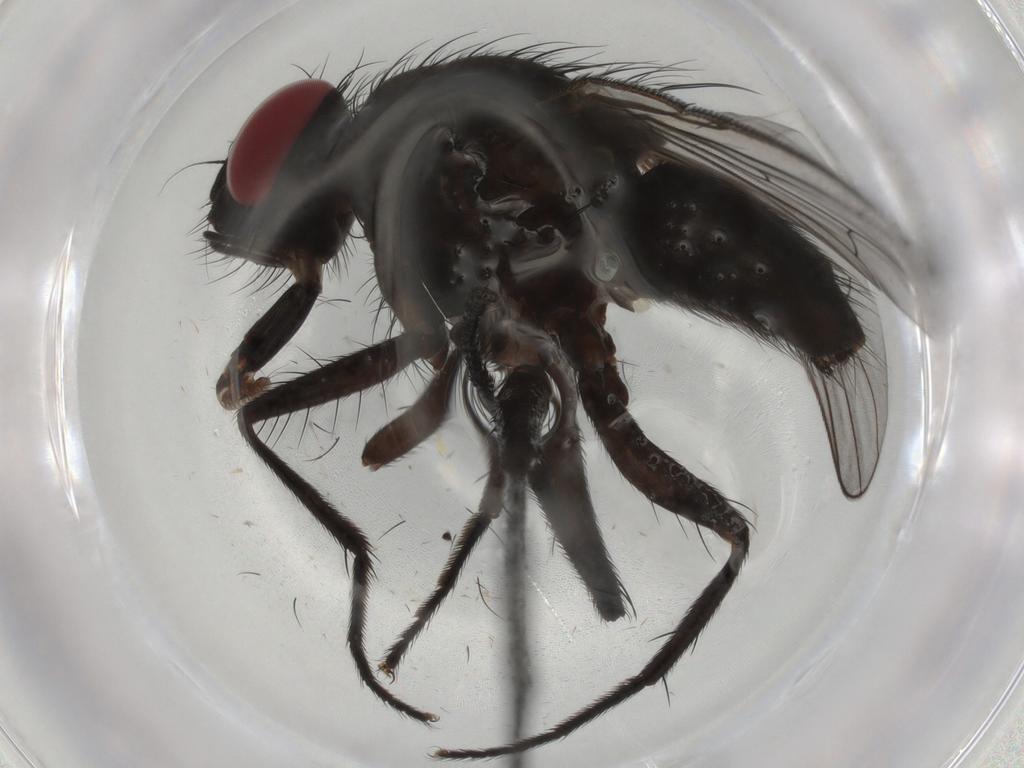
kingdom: Animalia
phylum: Arthropoda
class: Insecta
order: Diptera
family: Muscidae
